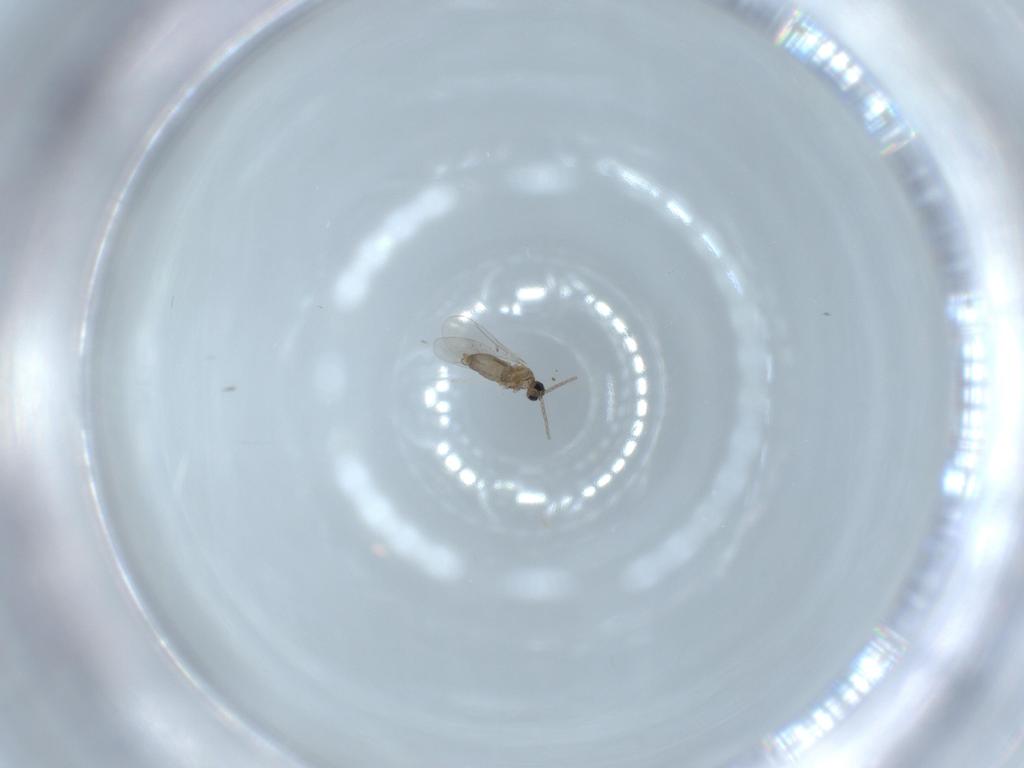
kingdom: Animalia
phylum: Arthropoda
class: Insecta
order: Diptera
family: Cecidomyiidae
